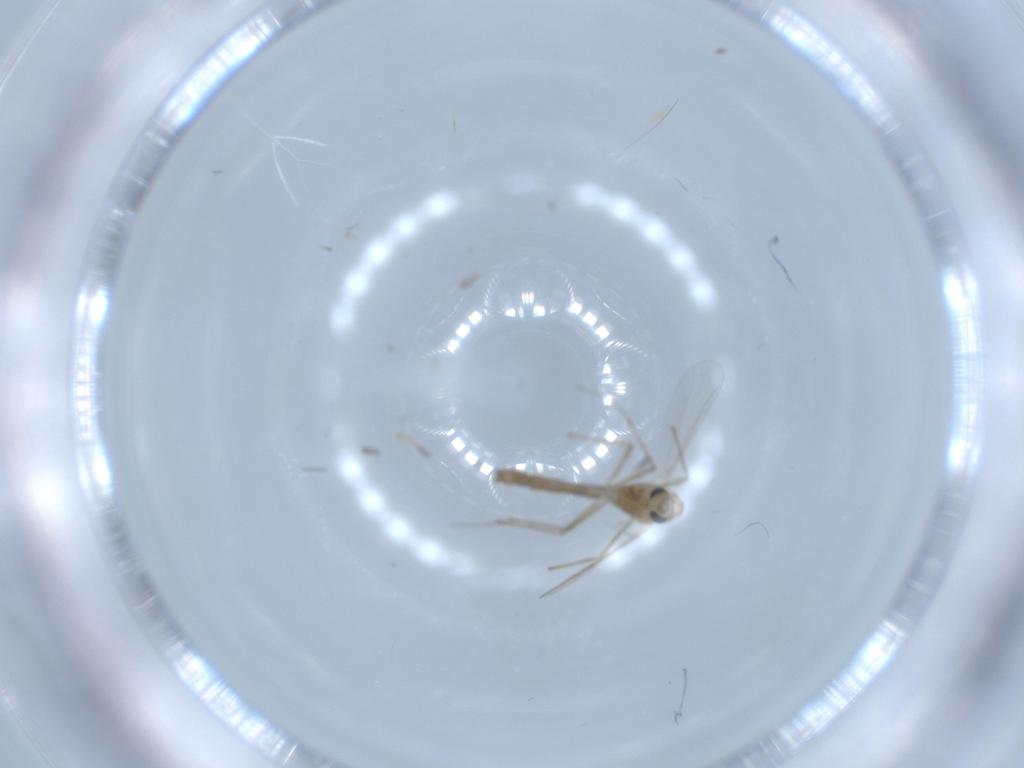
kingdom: Animalia
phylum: Arthropoda
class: Insecta
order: Diptera
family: Chironomidae
